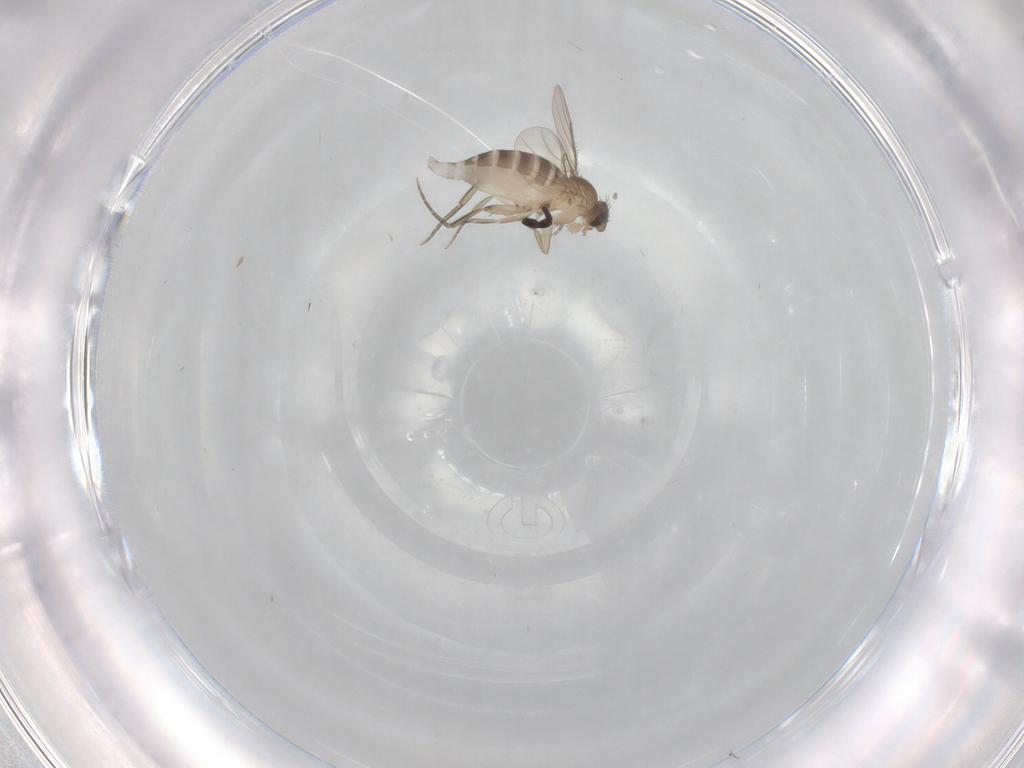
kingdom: Animalia
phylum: Arthropoda
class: Insecta
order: Diptera
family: Phoridae
